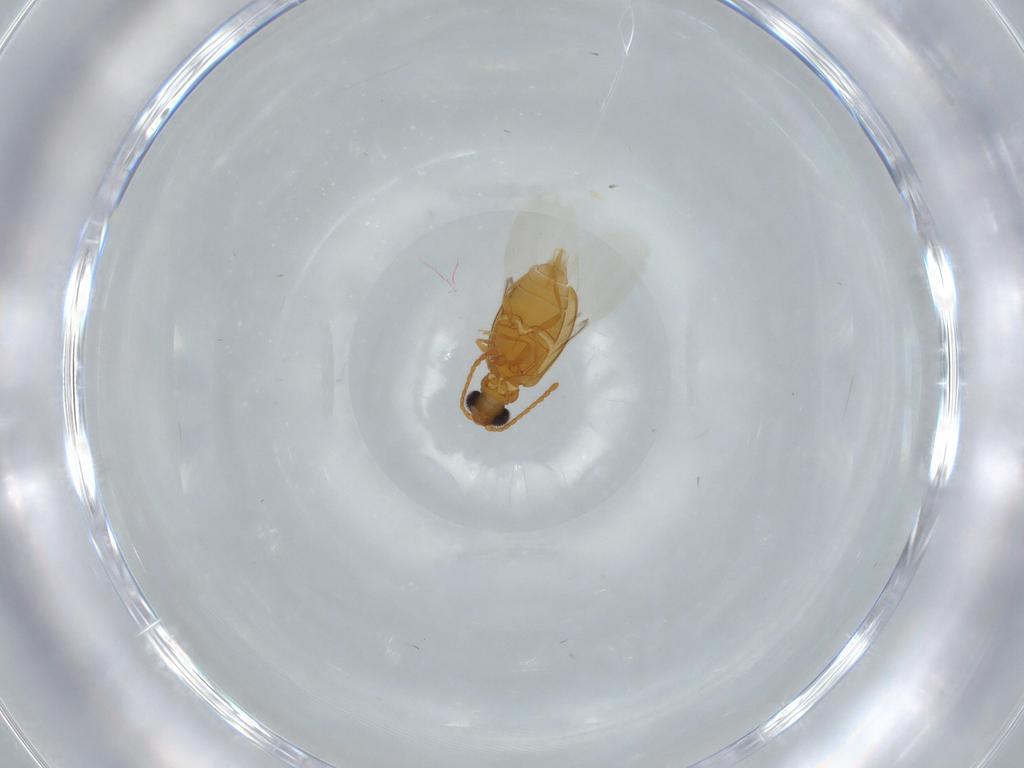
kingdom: Animalia
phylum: Arthropoda
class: Insecta
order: Coleoptera
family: Aderidae
